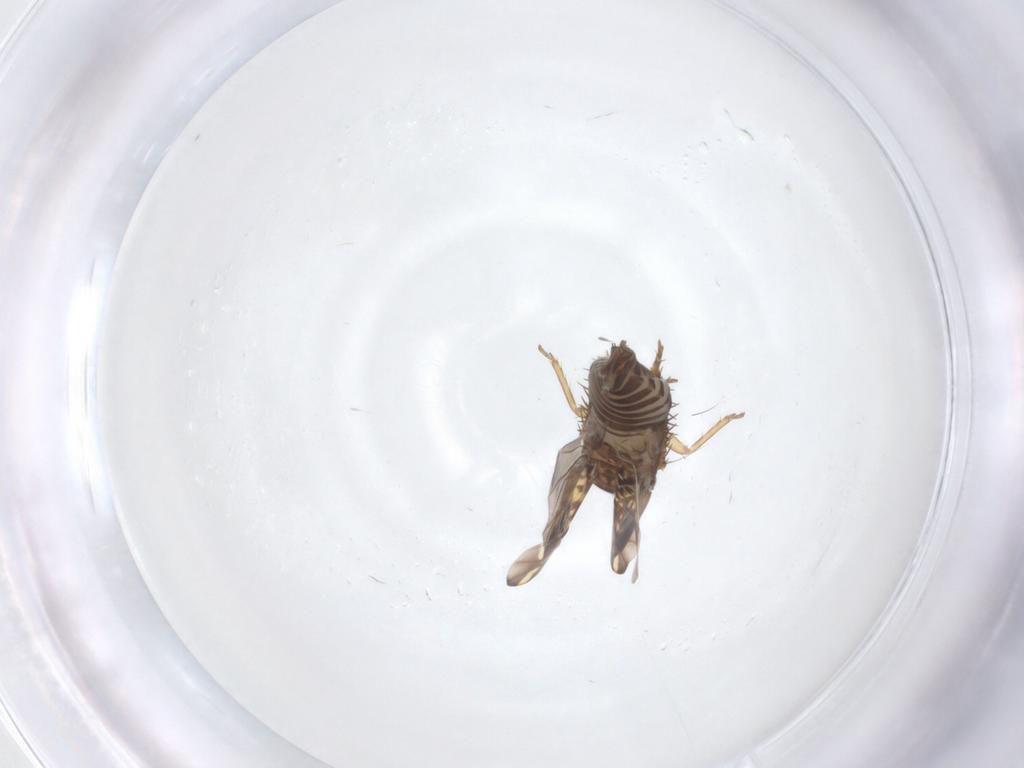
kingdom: Animalia
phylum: Arthropoda
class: Insecta
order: Hemiptera
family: Cicadellidae
